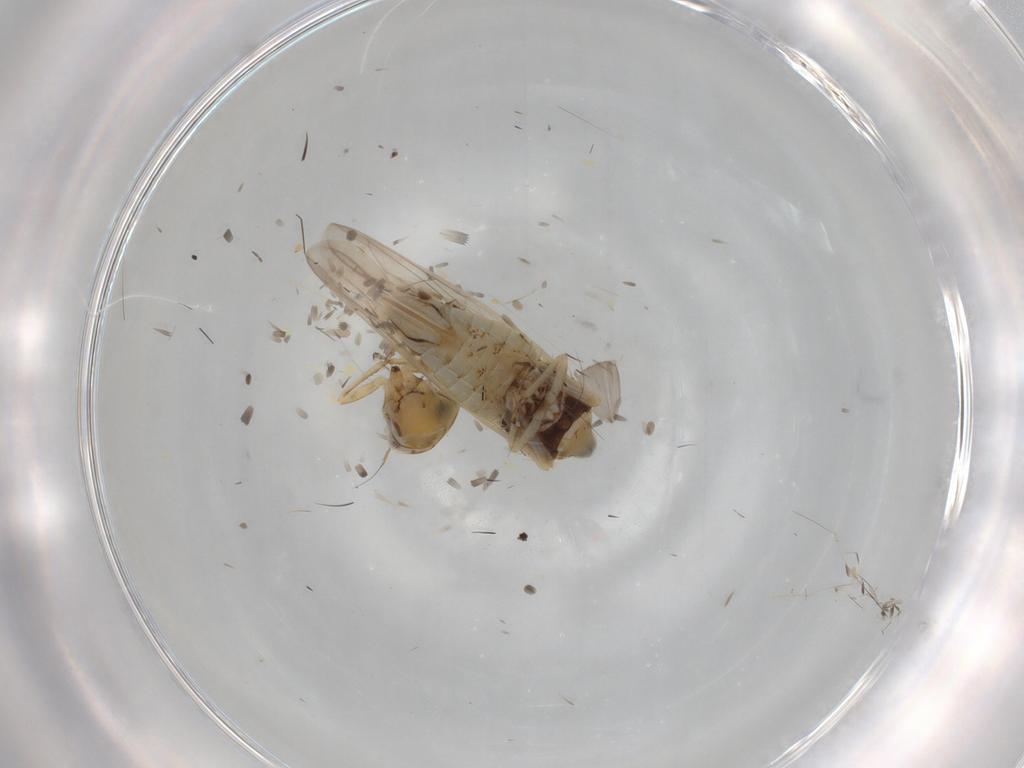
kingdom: Animalia
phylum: Arthropoda
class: Insecta
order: Hemiptera
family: Cicadellidae
